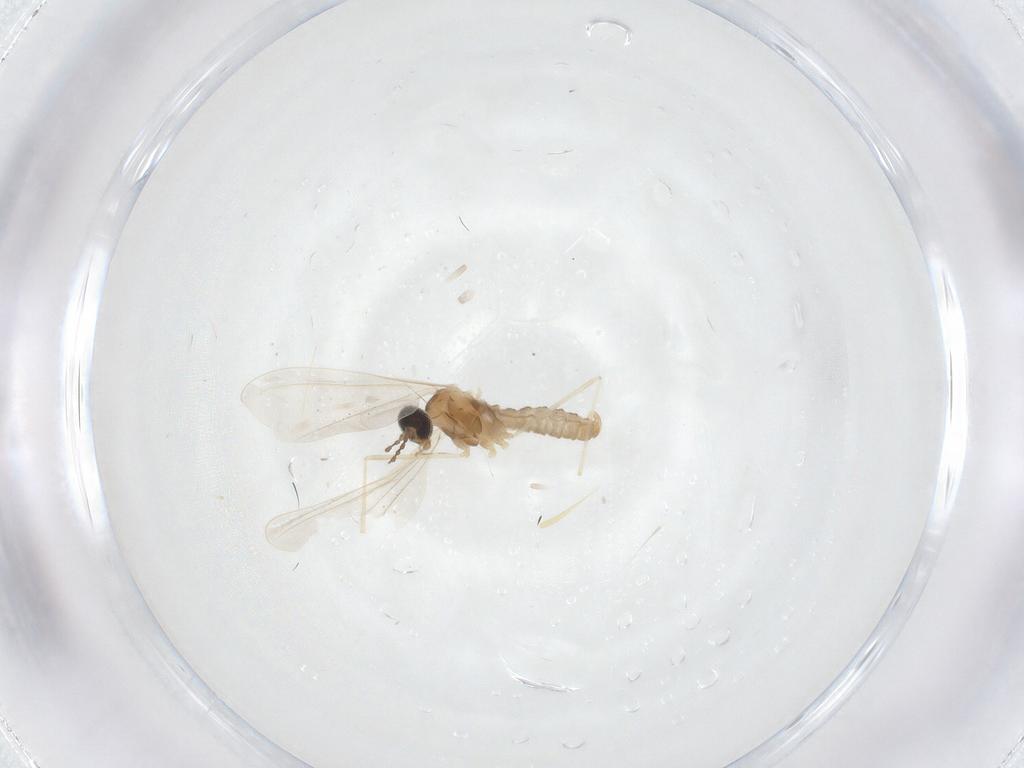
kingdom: Animalia
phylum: Arthropoda
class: Insecta
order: Diptera
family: Cecidomyiidae
